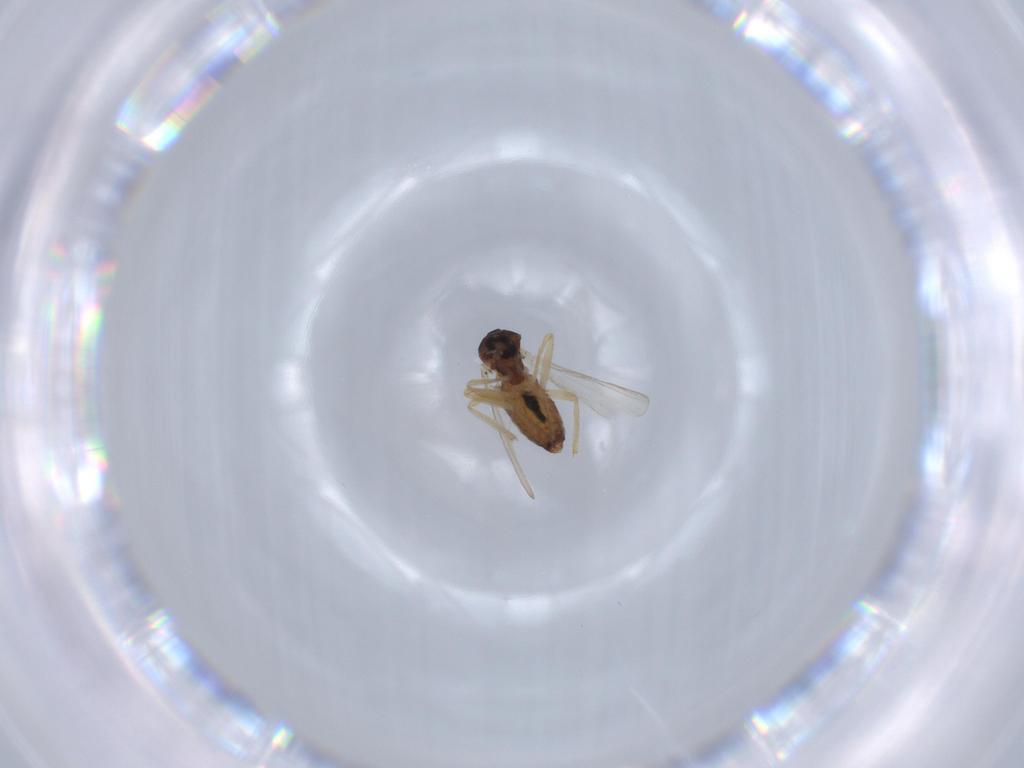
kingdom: Animalia
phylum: Arthropoda
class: Insecta
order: Diptera
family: Ceratopogonidae
